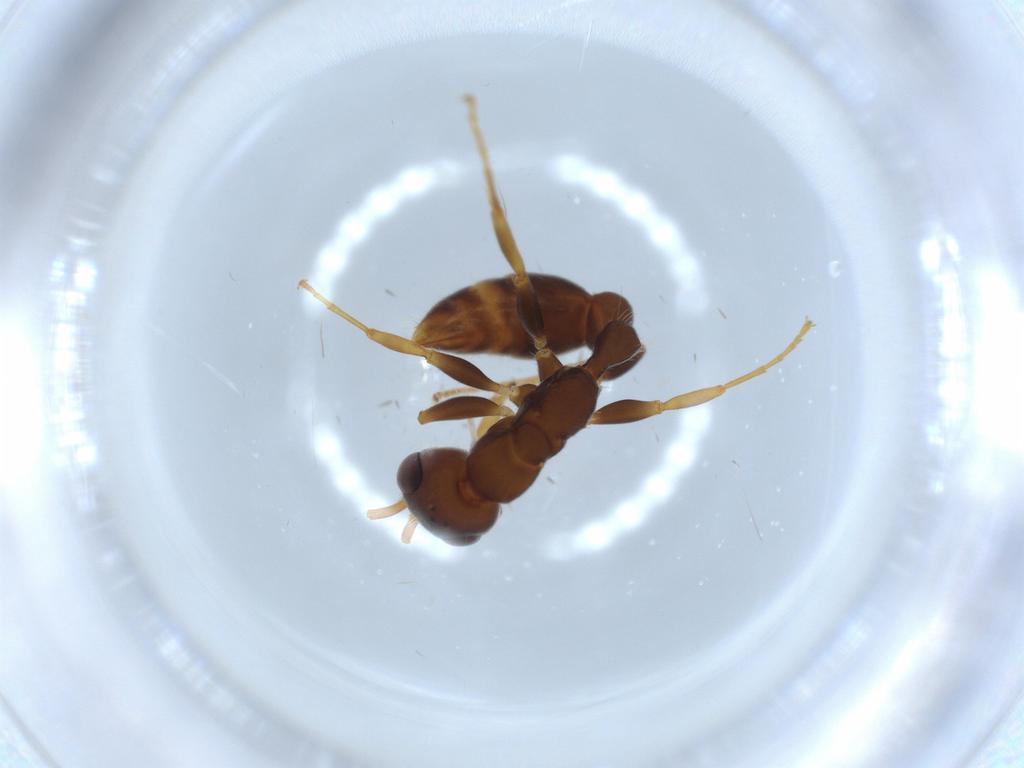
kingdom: Animalia
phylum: Arthropoda
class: Insecta
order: Hymenoptera
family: Formicidae
